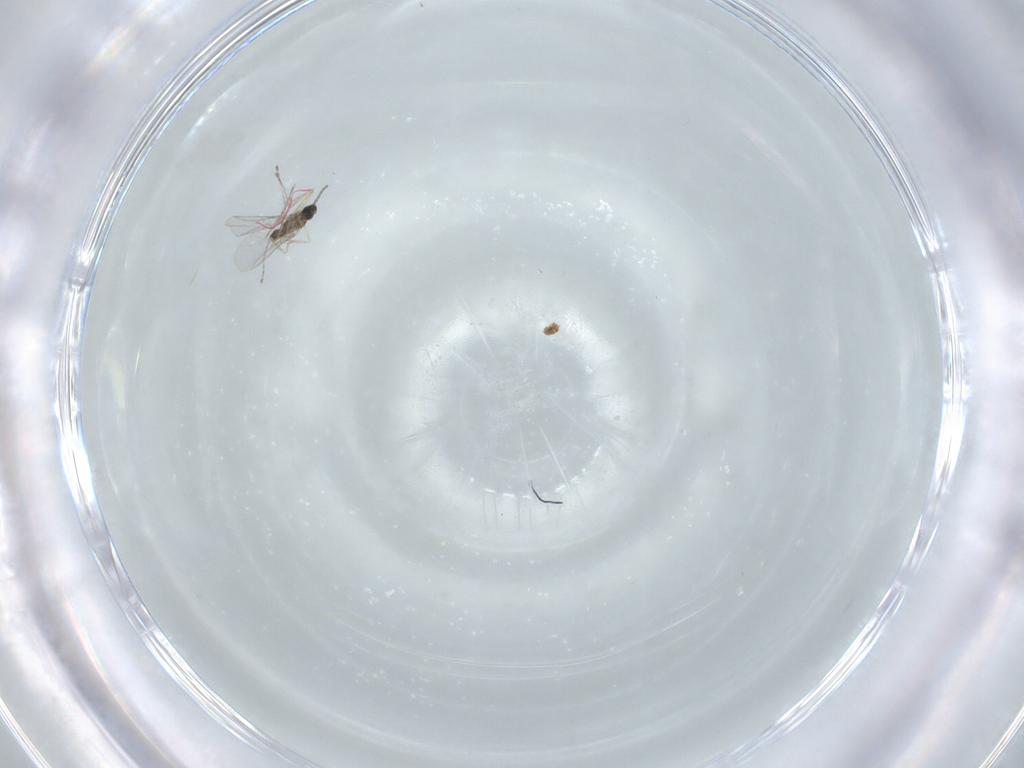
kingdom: Animalia
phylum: Arthropoda
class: Insecta
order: Diptera
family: Cecidomyiidae
